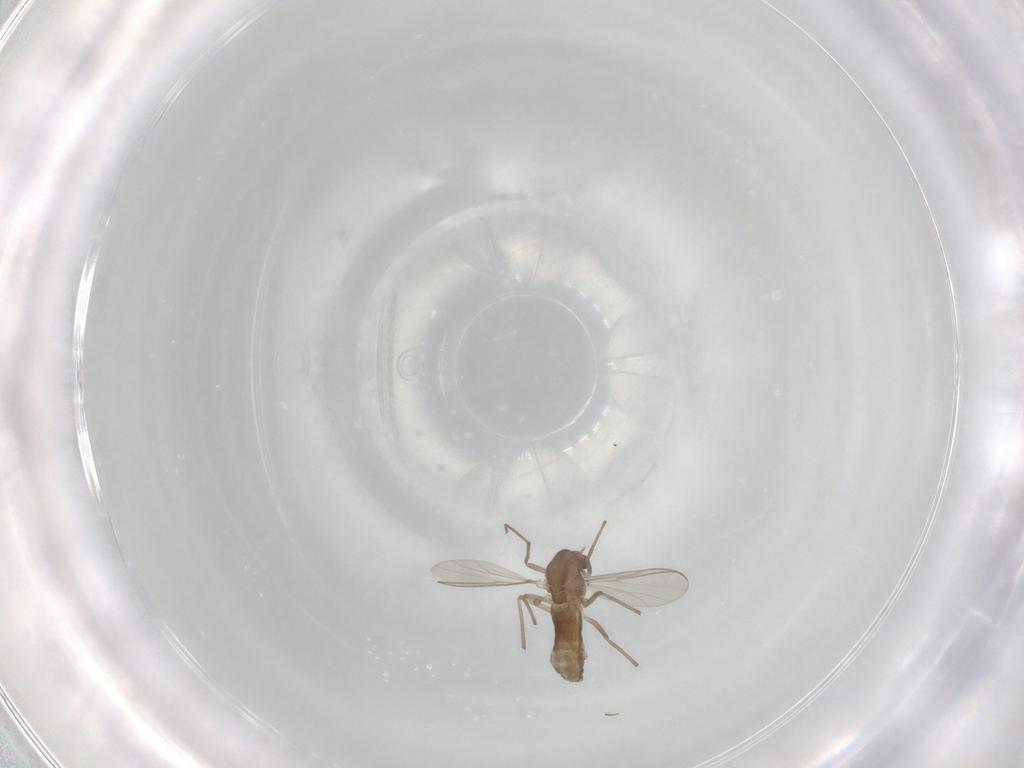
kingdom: Animalia
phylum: Arthropoda
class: Insecta
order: Diptera
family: Chironomidae
